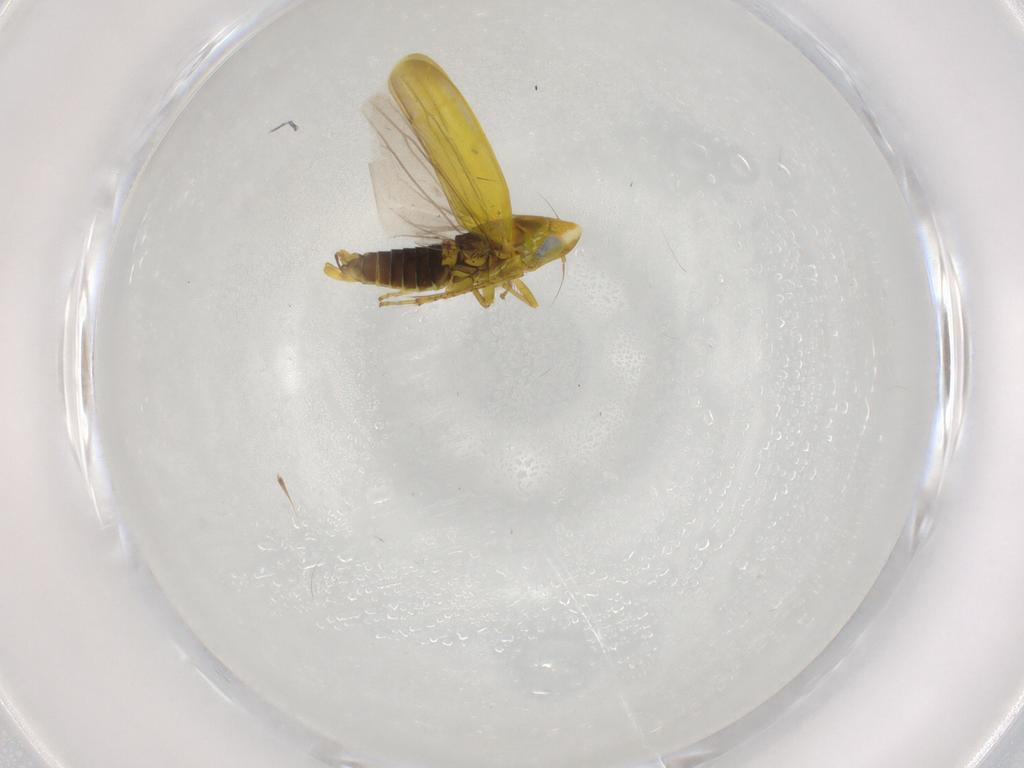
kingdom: Animalia
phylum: Arthropoda
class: Insecta
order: Hemiptera
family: Cicadellidae
